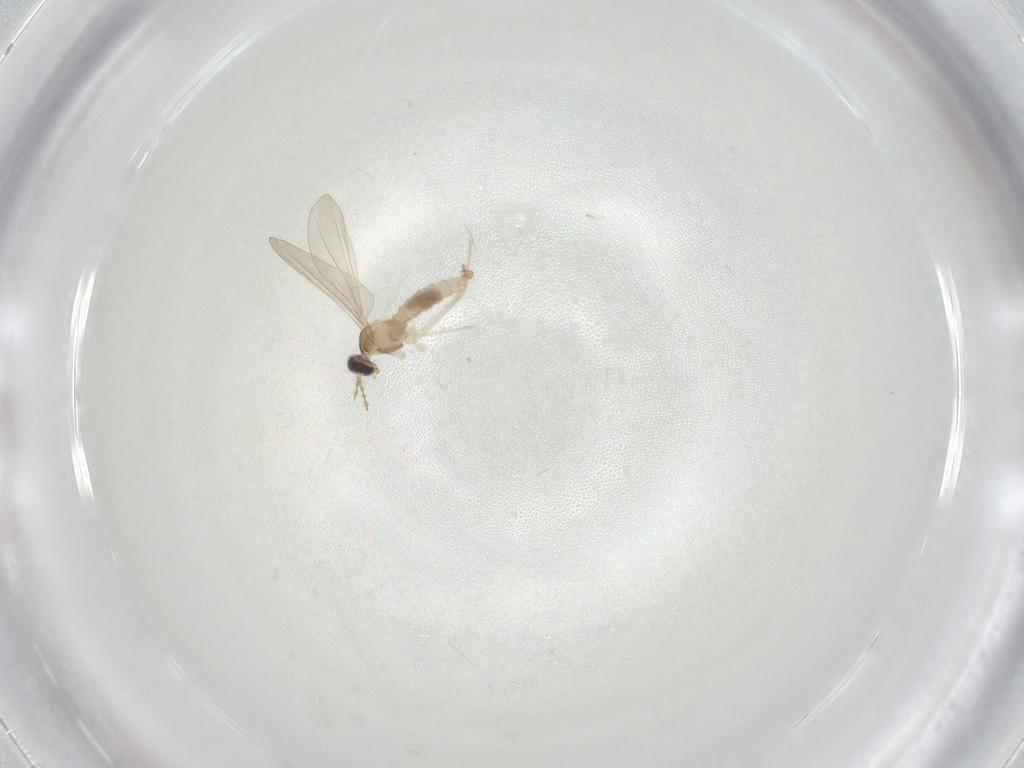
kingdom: Animalia
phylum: Arthropoda
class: Insecta
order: Diptera
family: Cecidomyiidae
